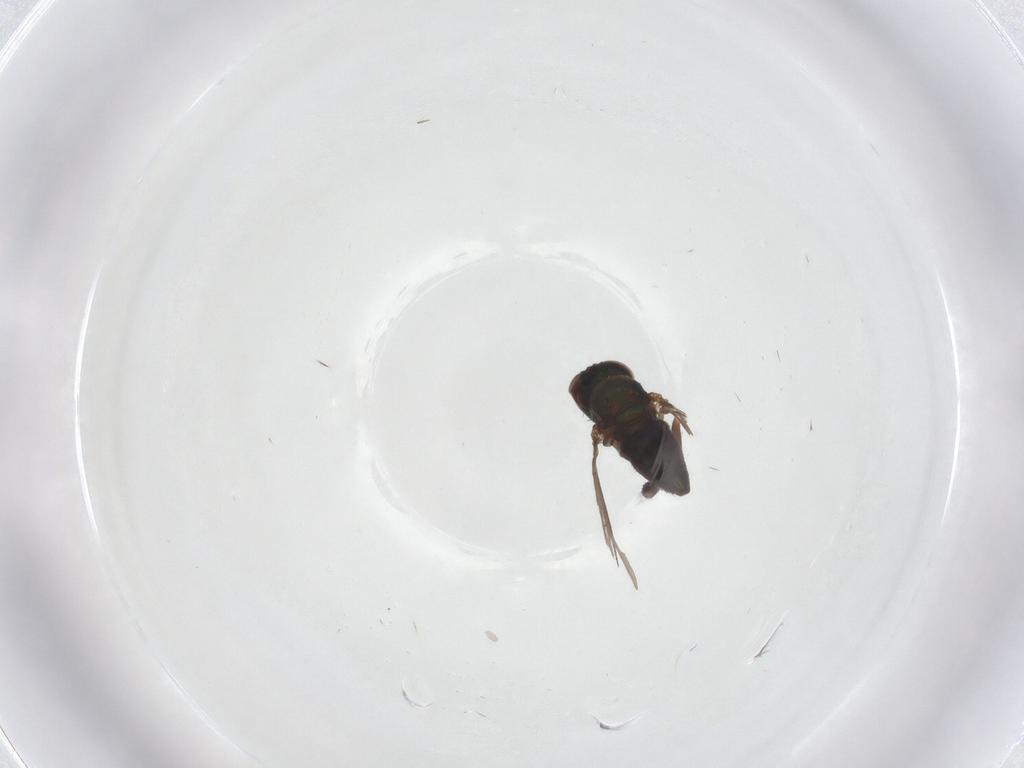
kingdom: Animalia
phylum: Arthropoda
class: Insecta
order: Diptera
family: Dolichopodidae
